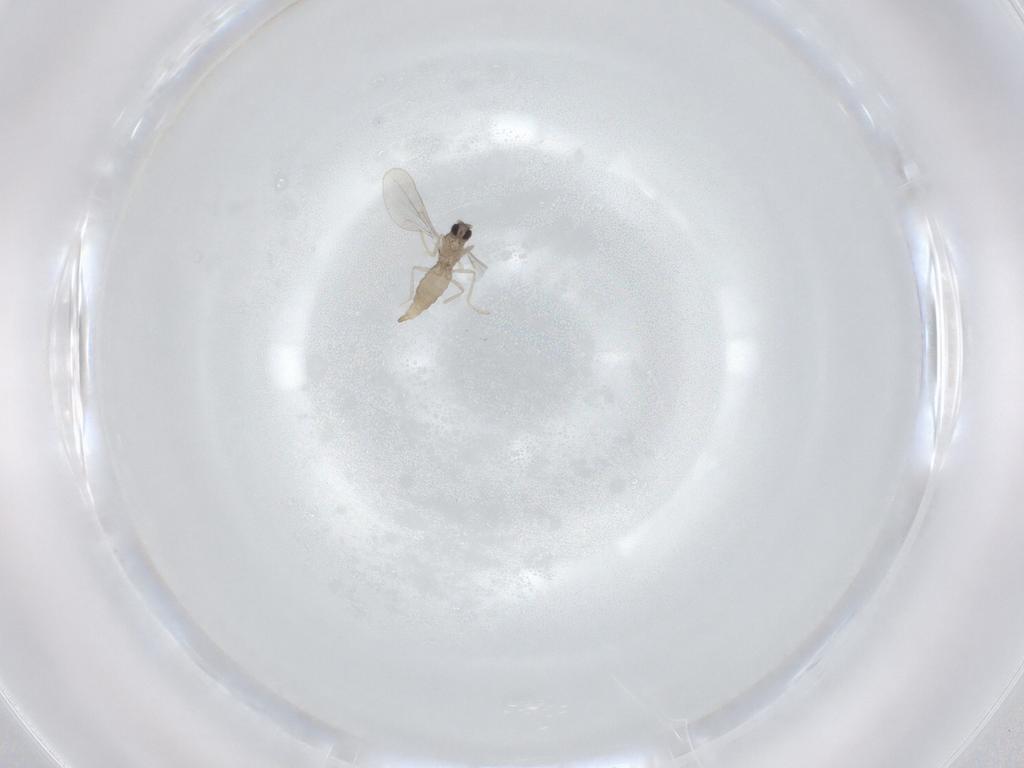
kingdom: Animalia
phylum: Arthropoda
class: Insecta
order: Diptera
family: Cecidomyiidae
